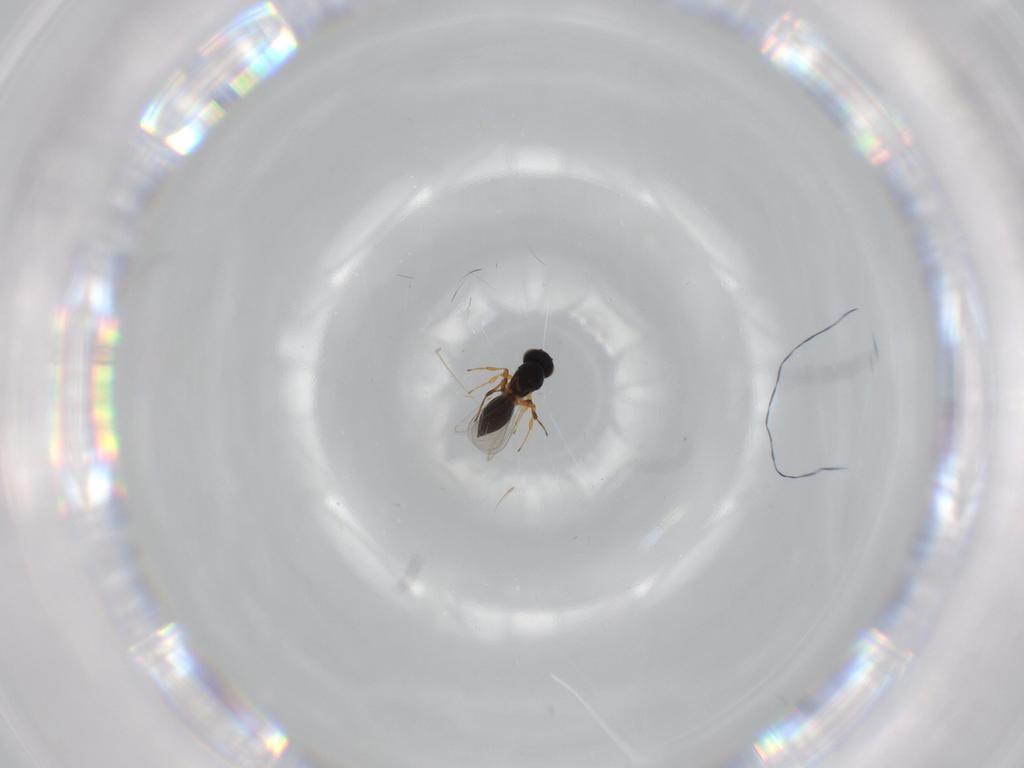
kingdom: Animalia
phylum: Arthropoda
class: Insecta
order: Hymenoptera
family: Platygastridae
